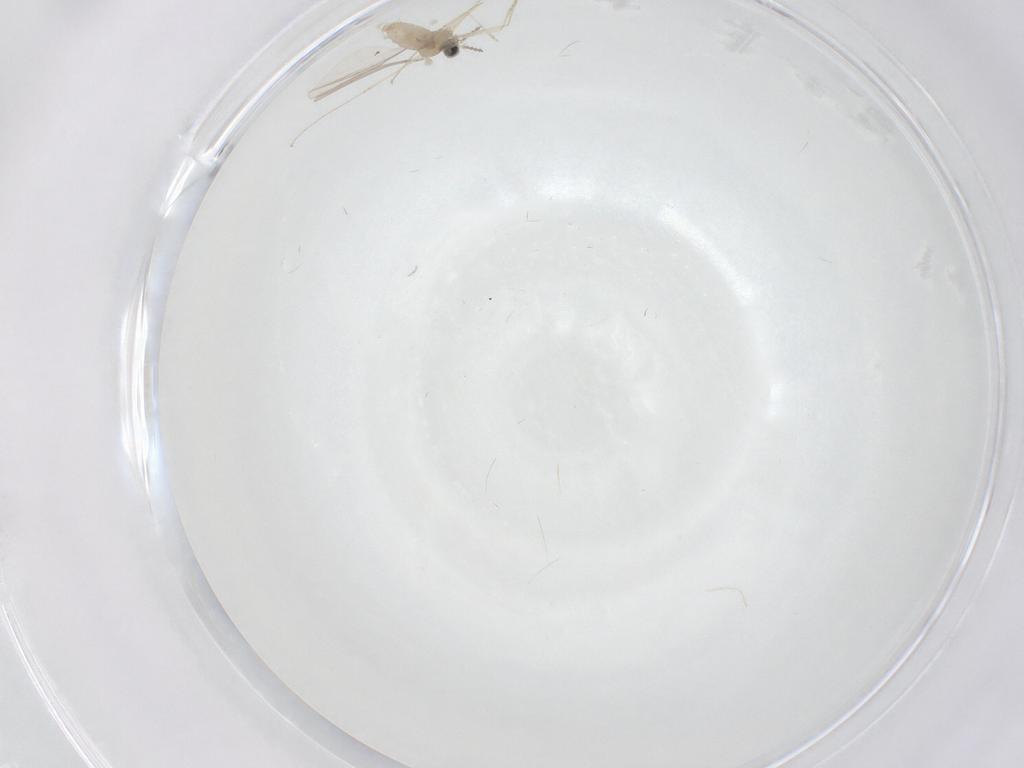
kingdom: Animalia
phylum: Arthropoda
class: Insecta
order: Diptera
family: Cecidomyiidae
